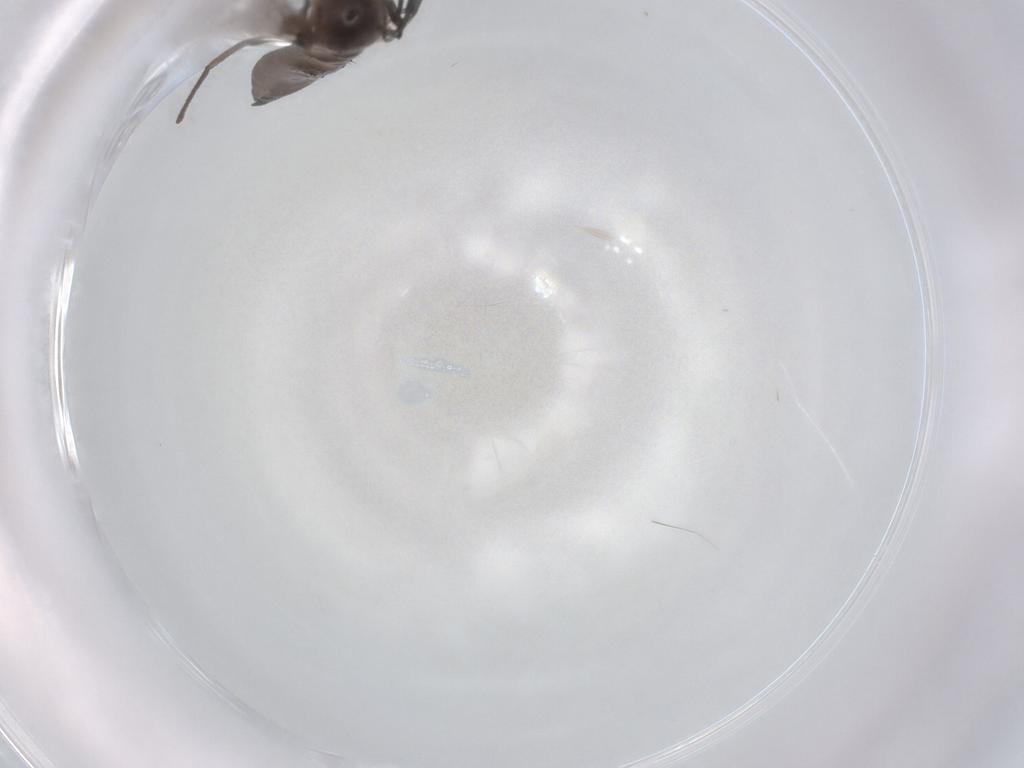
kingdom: Animalia
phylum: Arthropoda
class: Insecta
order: Diptera
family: Sciaridae
